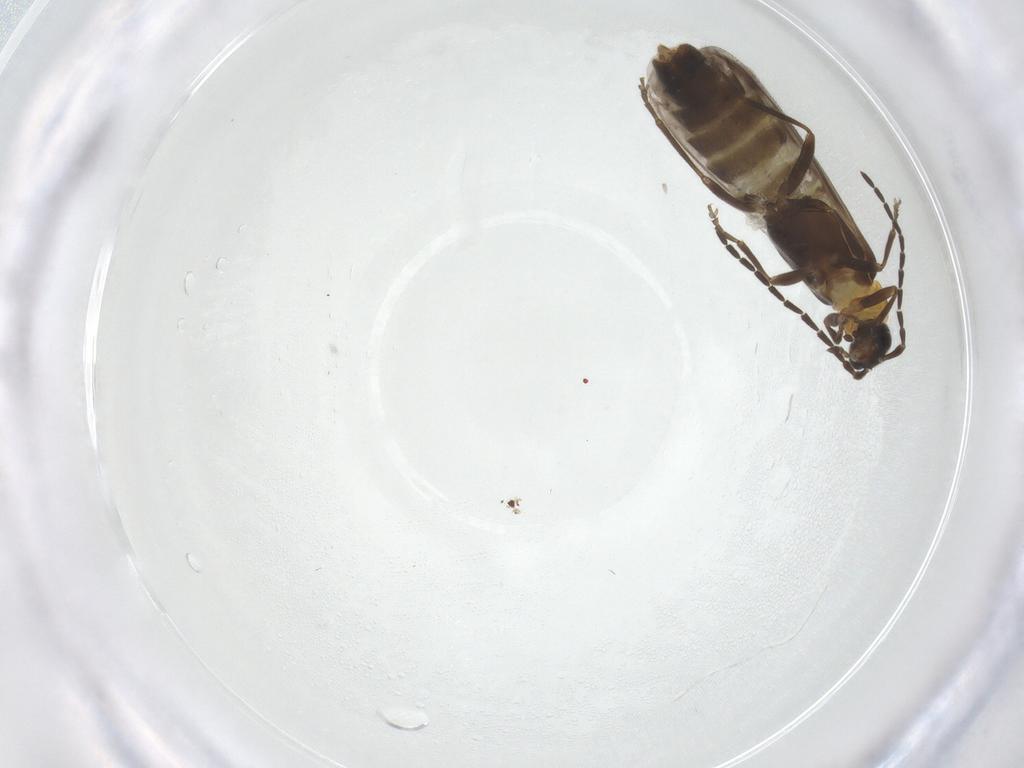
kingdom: Animalia
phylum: Arthropoda
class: Insecta
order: Coleoptera
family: Cantharidae
